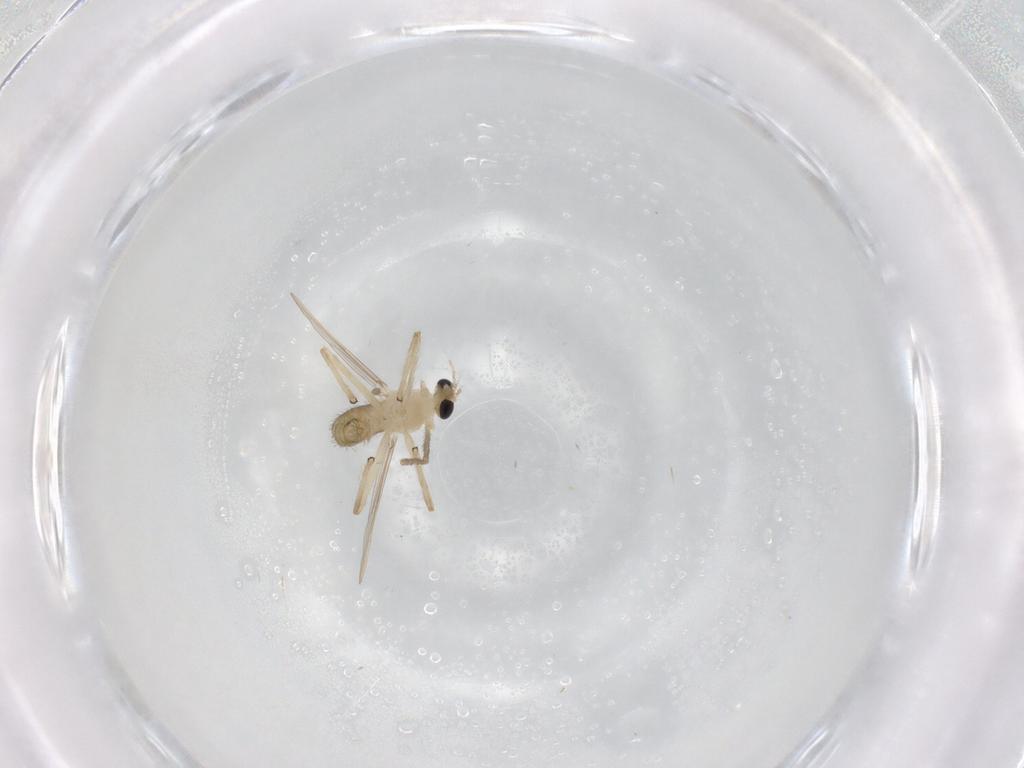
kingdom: Animalia
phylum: Arthropoda
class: Insecta
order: Diptera
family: Chironomidae
